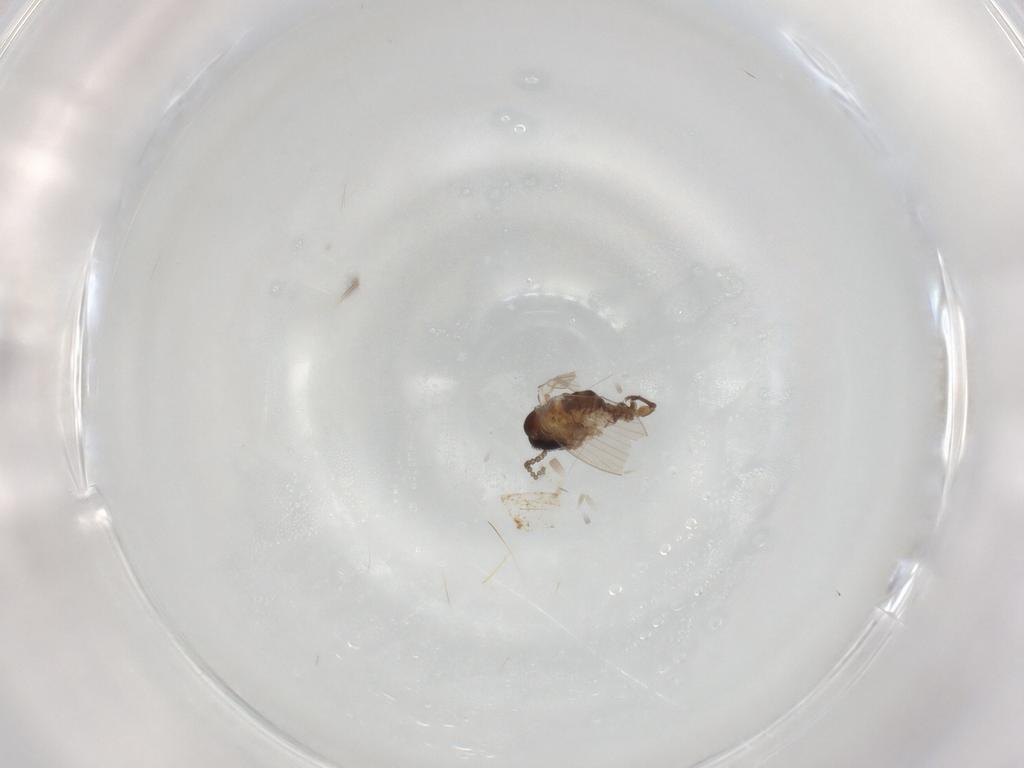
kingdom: Animalia
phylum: Arthropoda
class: Insecta
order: Diptera
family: Psychodidae
